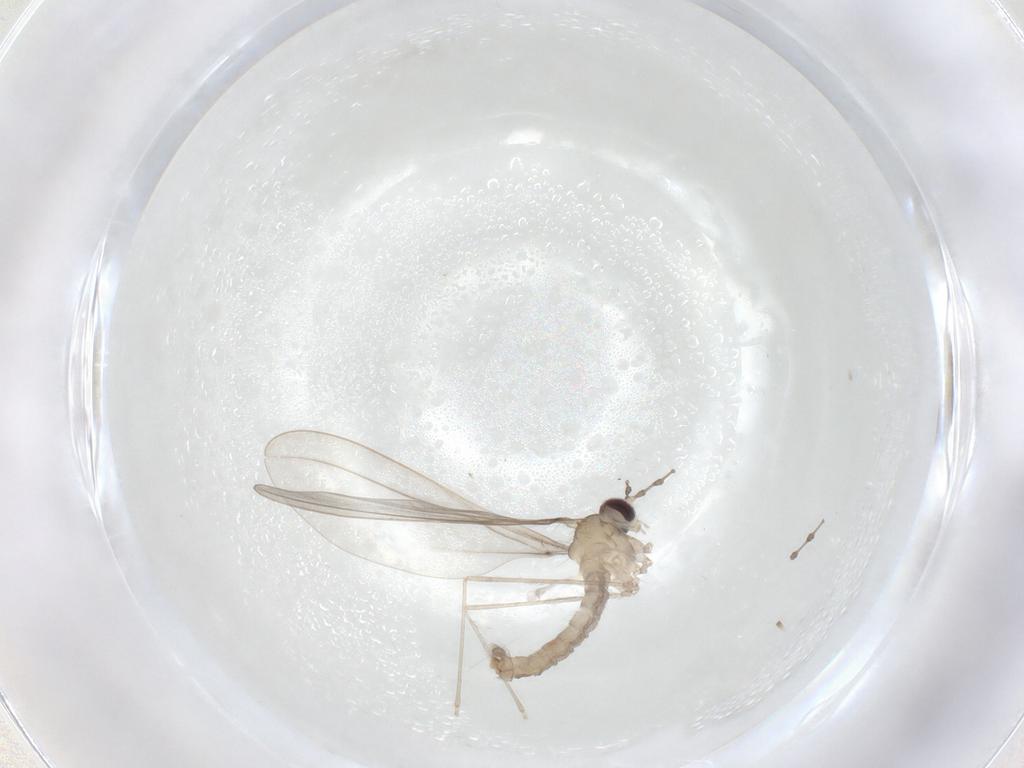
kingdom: Animalia
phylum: Arthropoda
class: Insecta
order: Diptera
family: Cecidomyiidae
